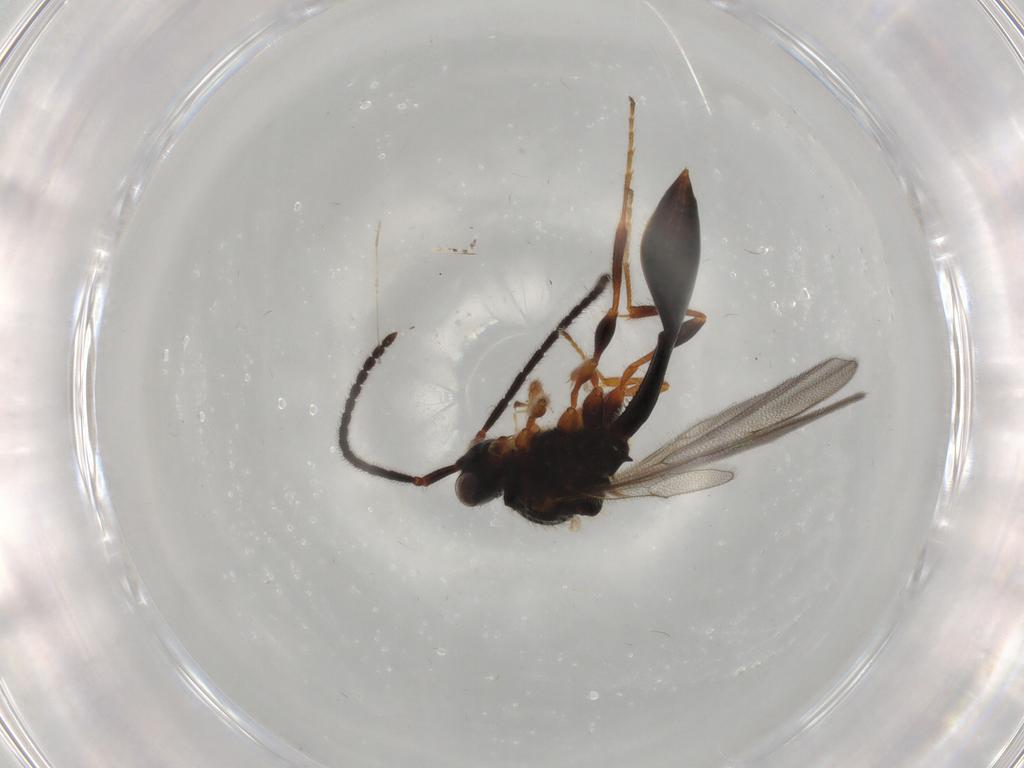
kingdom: Animalia
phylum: Arthropoda
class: Insecta
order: Hymenoptera
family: Diapriidae
